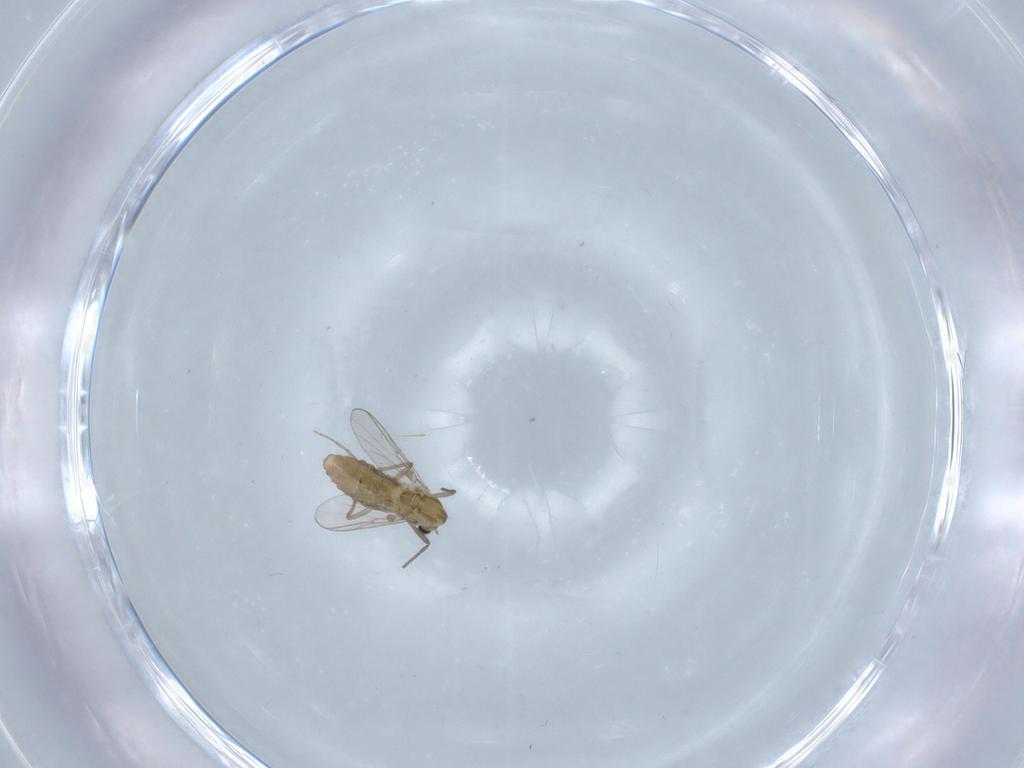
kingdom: Animalia
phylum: Arthropoda
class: Insecta
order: Diptera
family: Chironomidae
